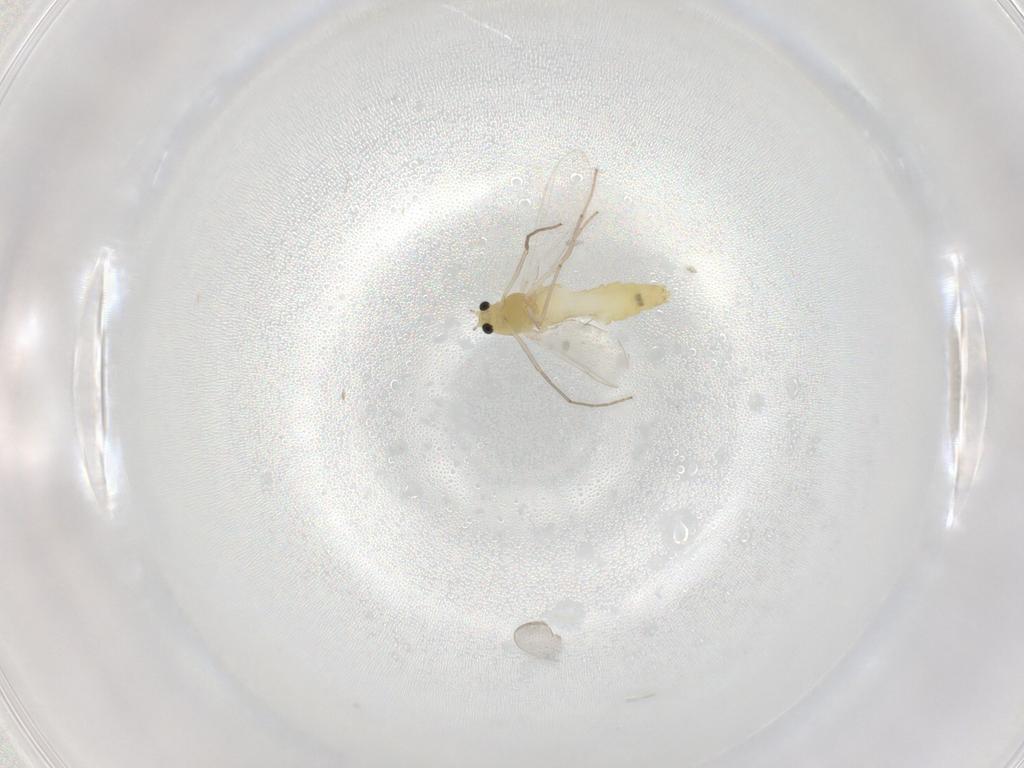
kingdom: Animalia
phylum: Arthropoda
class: Insecta
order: Diptera
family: Chironomidae
